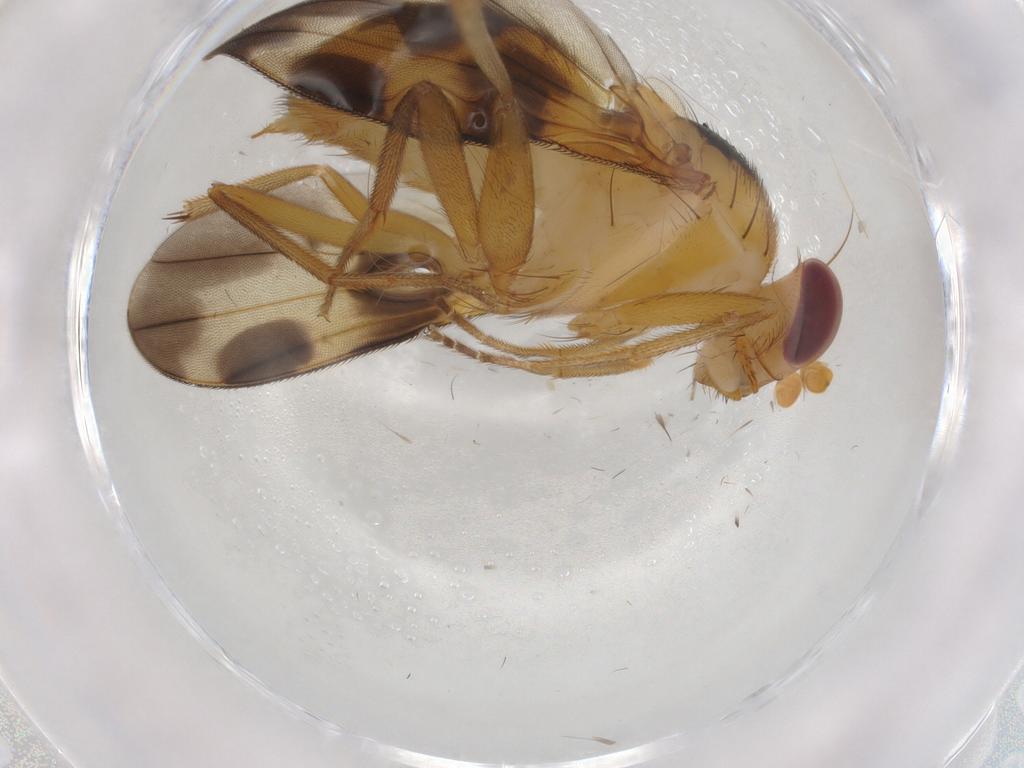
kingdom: Animalia
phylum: Arthropoda
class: Insecta
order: Diptera
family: Clusiidae
